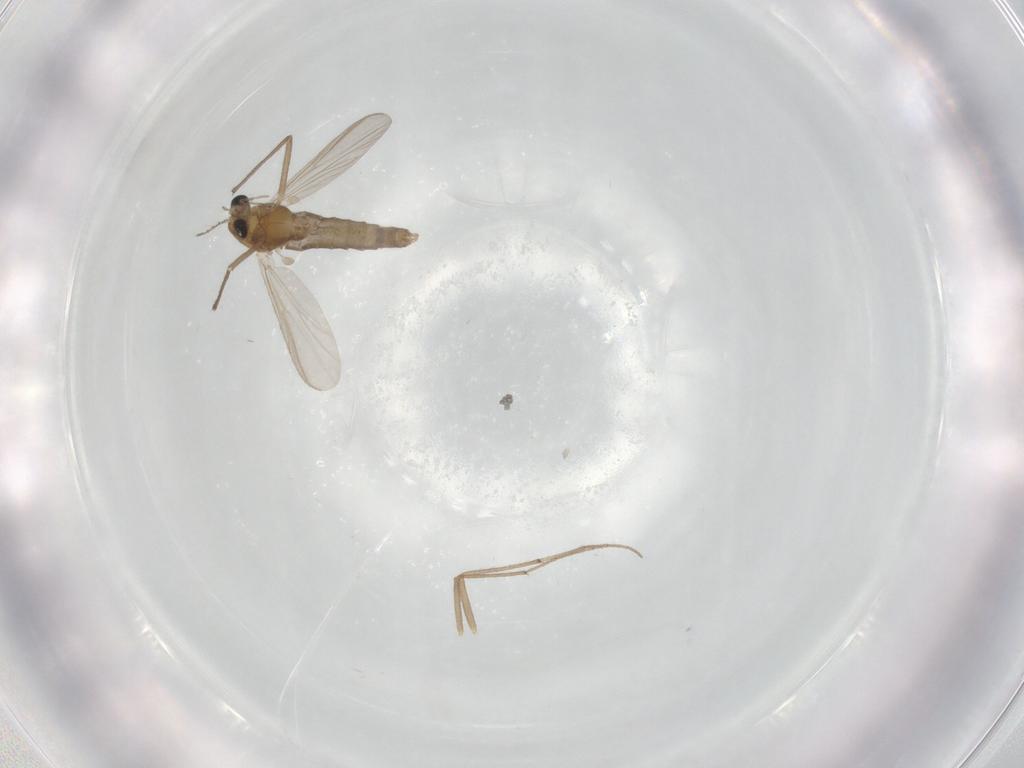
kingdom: Animalia
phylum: Arthropoda
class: Insecta
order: Diptera
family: Chironomidae
